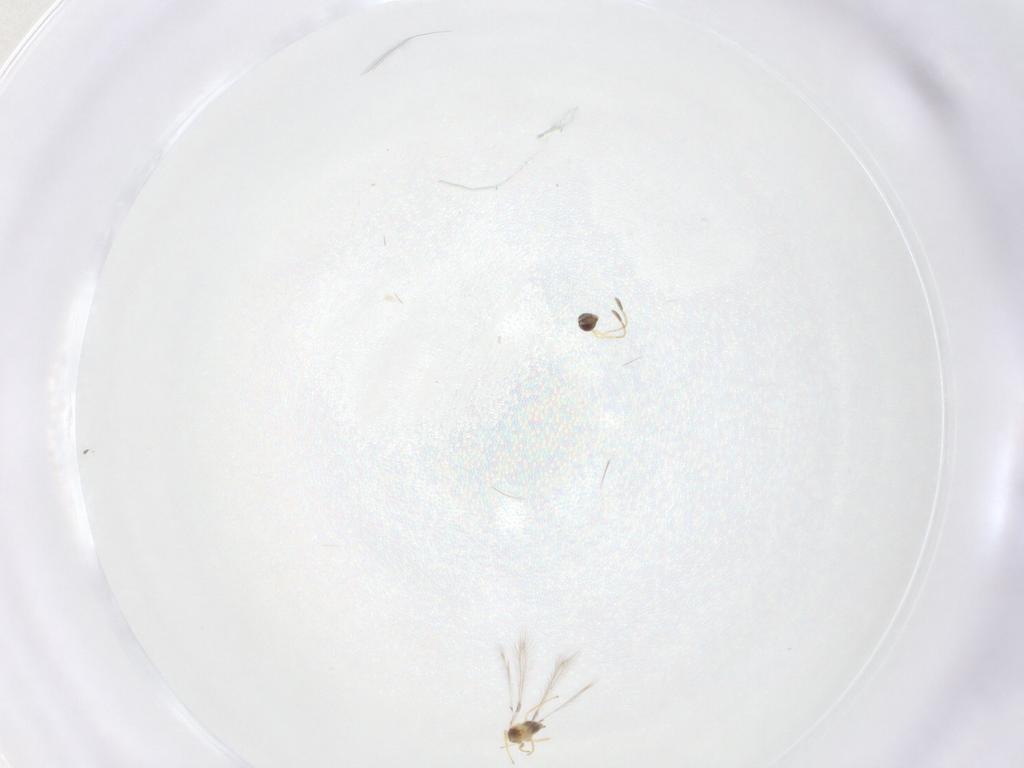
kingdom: Animalia
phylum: Arthropoda
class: Insecta
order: Hymenoptera
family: Mymaridae
